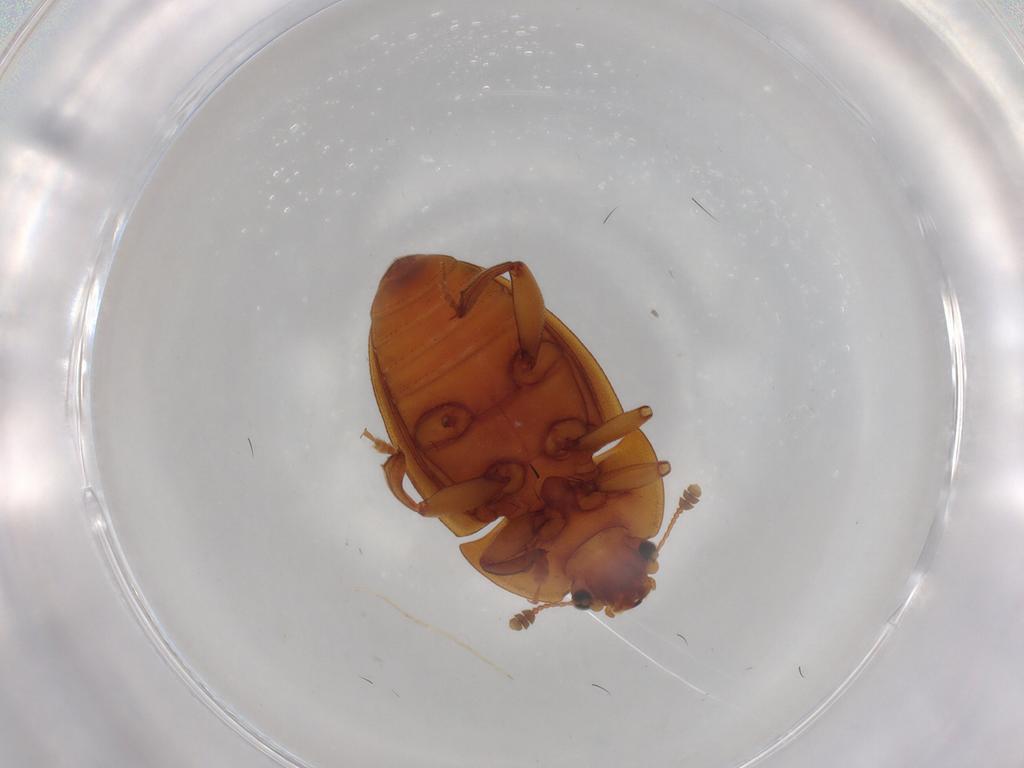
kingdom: Animalia
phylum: Arthropoda
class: Insecta
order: Coleoptera
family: Nitidulidae
